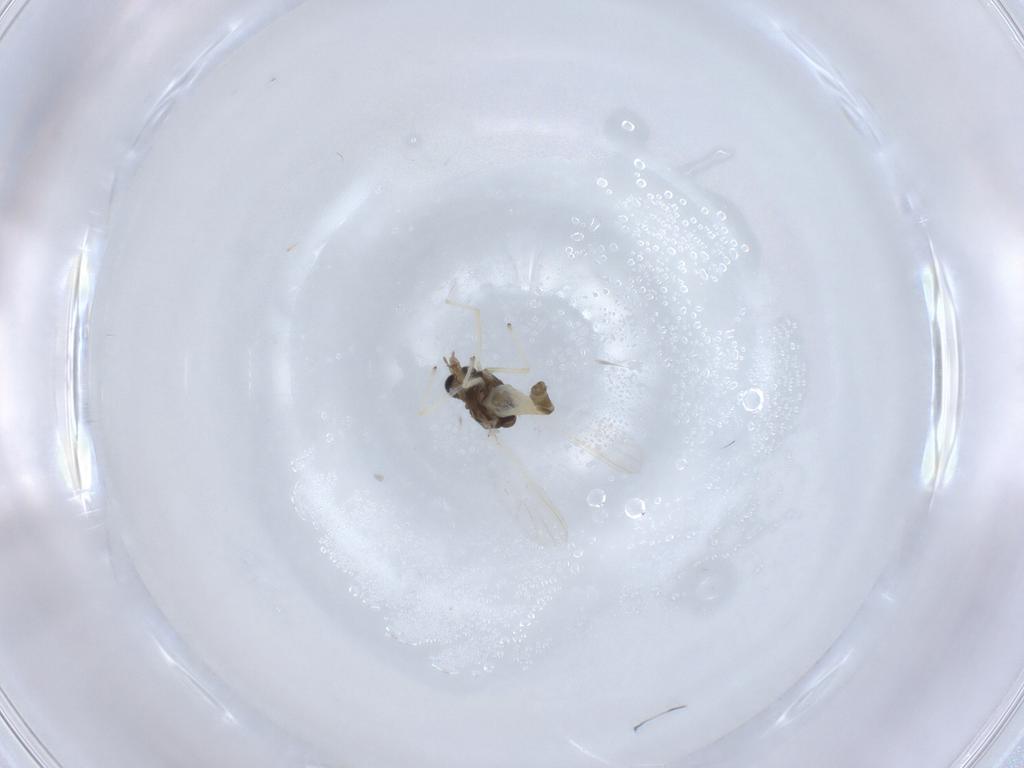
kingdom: Animalia
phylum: Arthropoda
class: Insecta
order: Diptera
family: Chironomidae
